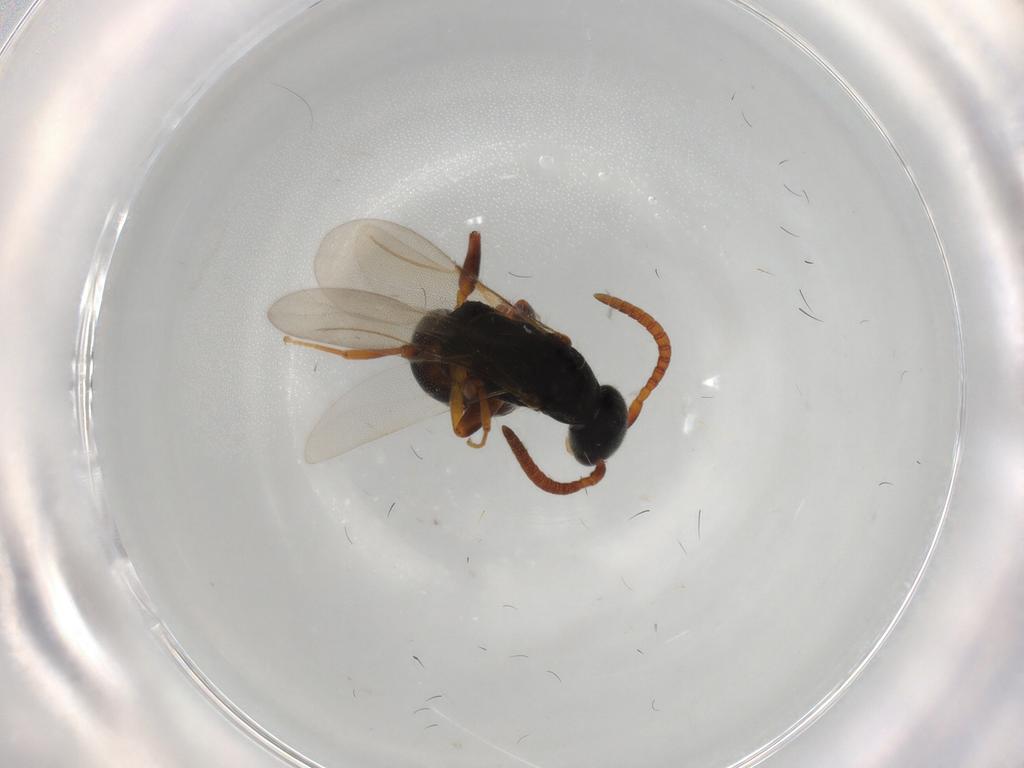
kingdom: Animalia
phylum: Arthropoda
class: Insecta
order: Hymenoptera
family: Bethylidae
